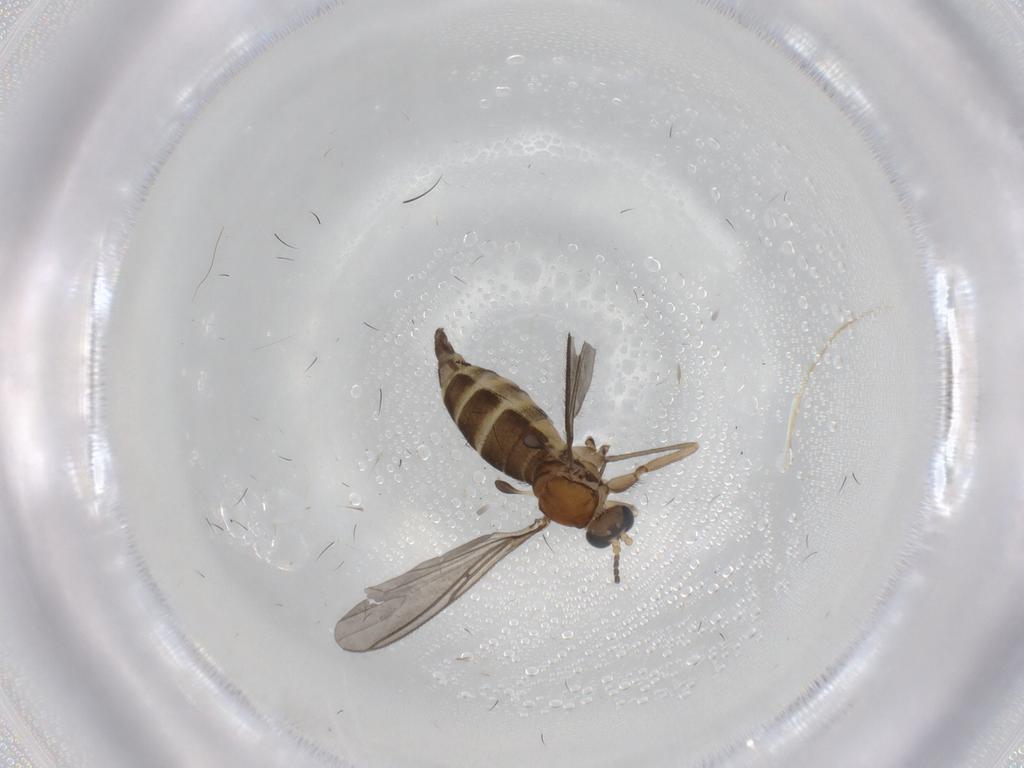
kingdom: Animalia
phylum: Arthropoda
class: Insecta
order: Diptera
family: Sciaridae
